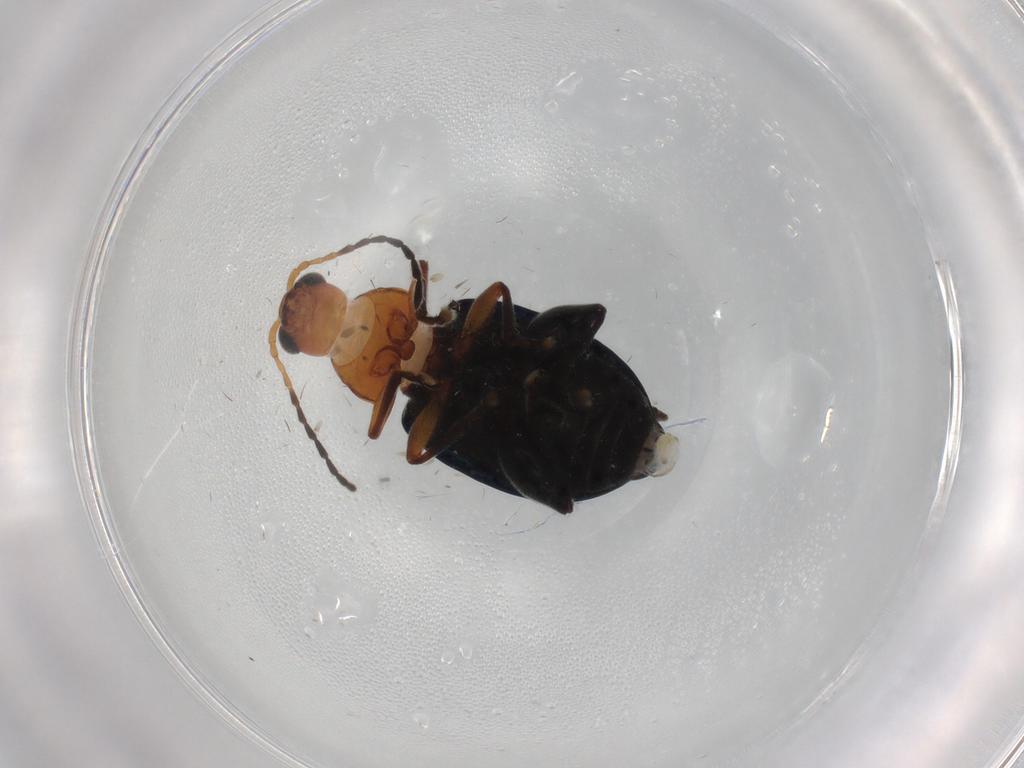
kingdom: Animalia
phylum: Arthropoda
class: Insecta
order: Coleoptera
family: Chrysomelidae
